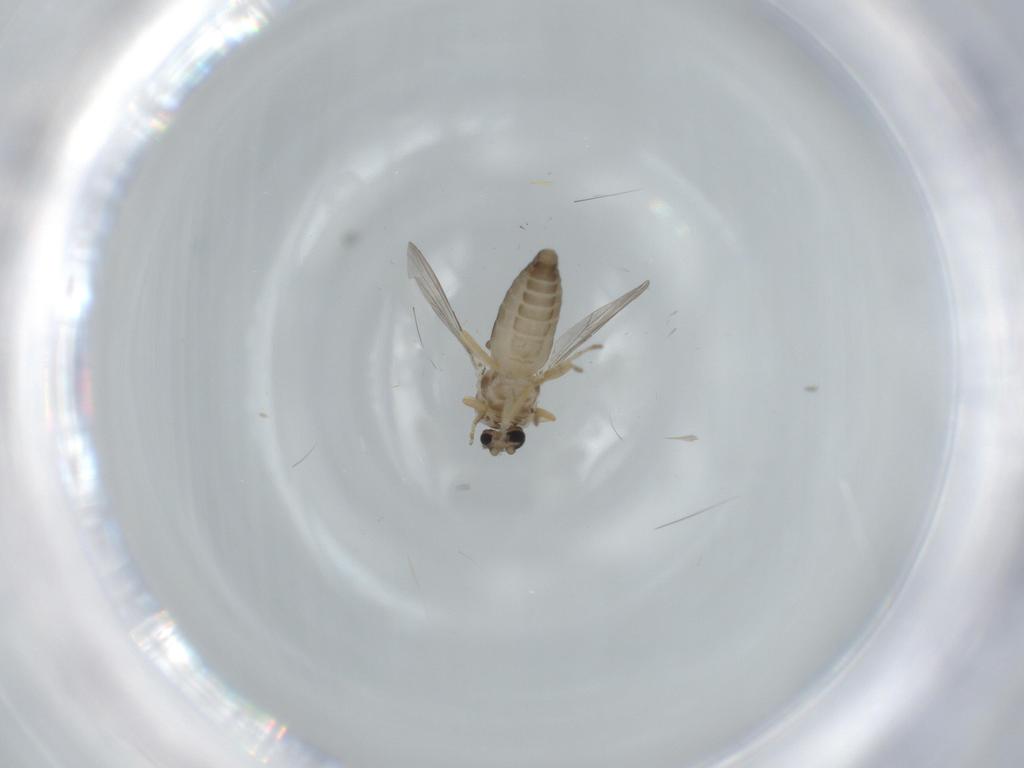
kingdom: Animalia
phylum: Arthropoda
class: Insecta
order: Diptera
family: Ceratopogonidae
